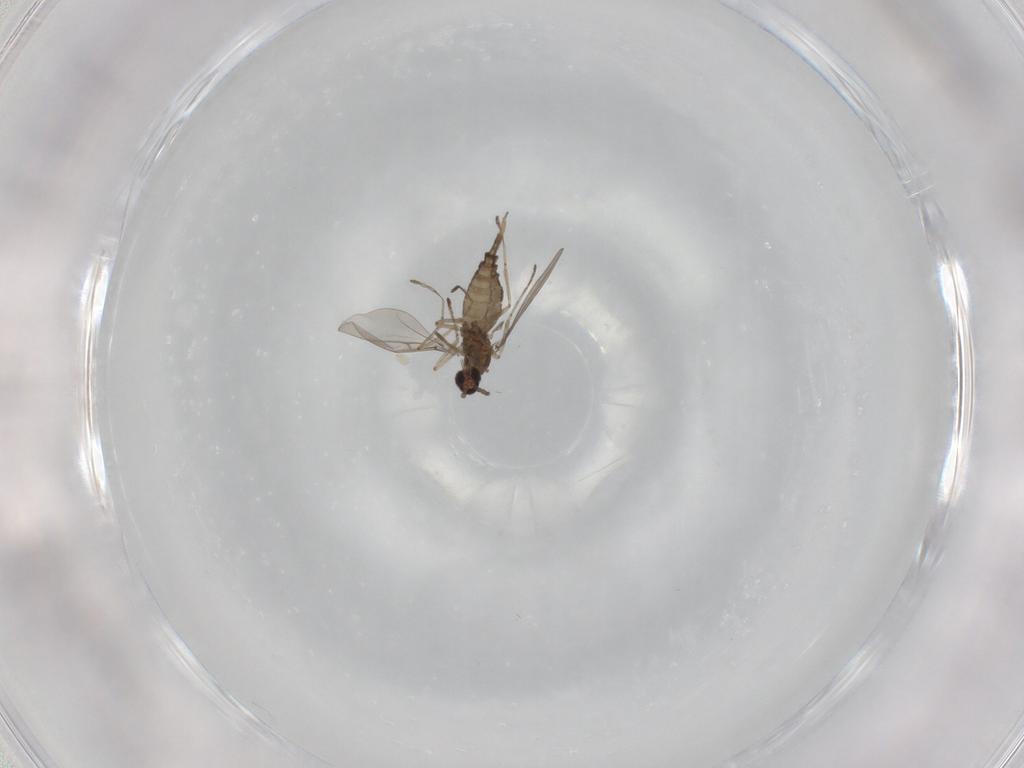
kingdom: Animalia
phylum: Arthropoda
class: Insecta
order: Diptera
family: Cecidomyiidae
